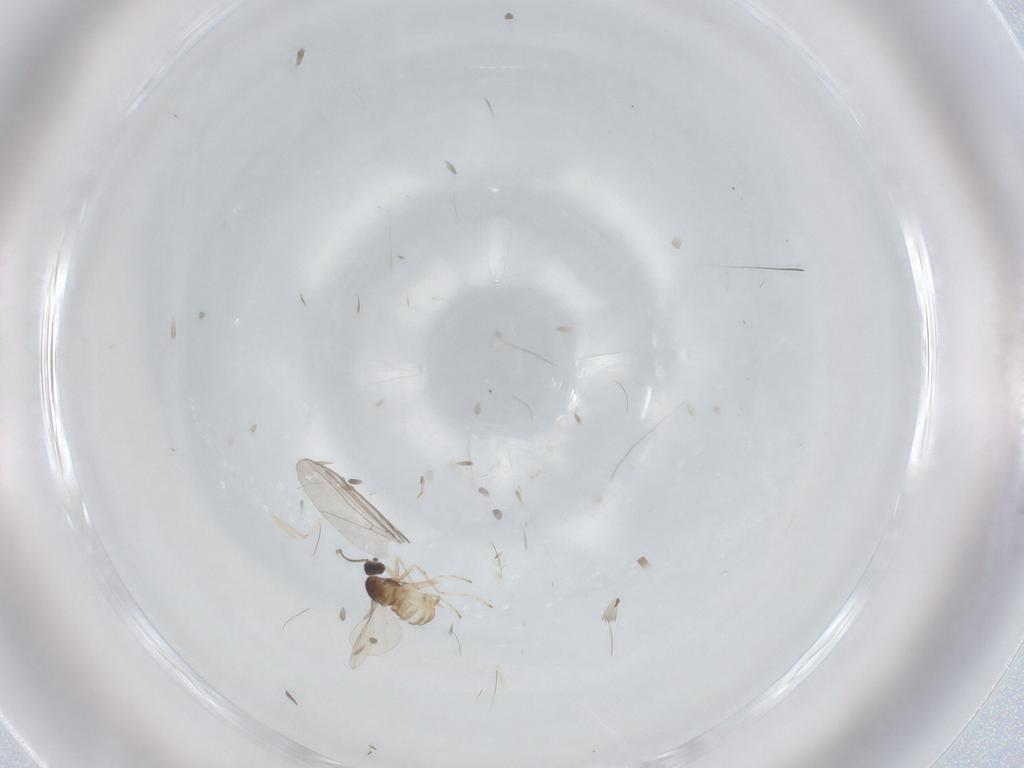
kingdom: Animalia
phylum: Arthropoda
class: Insecta
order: Diptera
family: Cecidomyiidae
